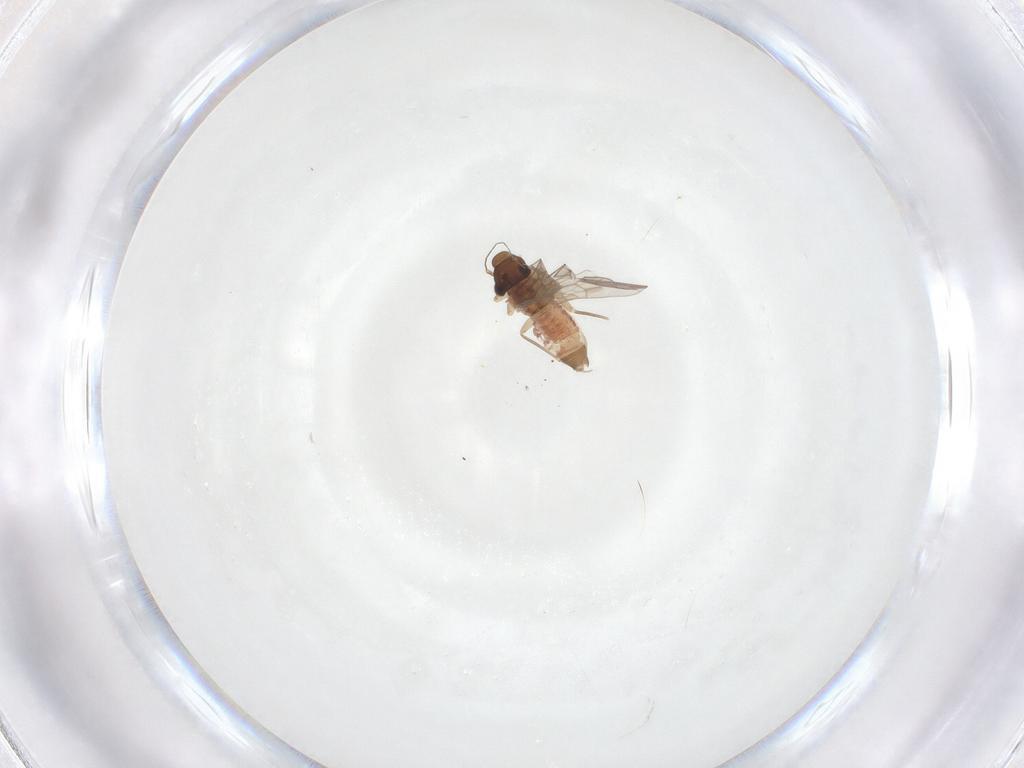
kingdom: Animalia
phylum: Arthropoda
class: Insecta
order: Psocodea
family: Lepidopsocidae
